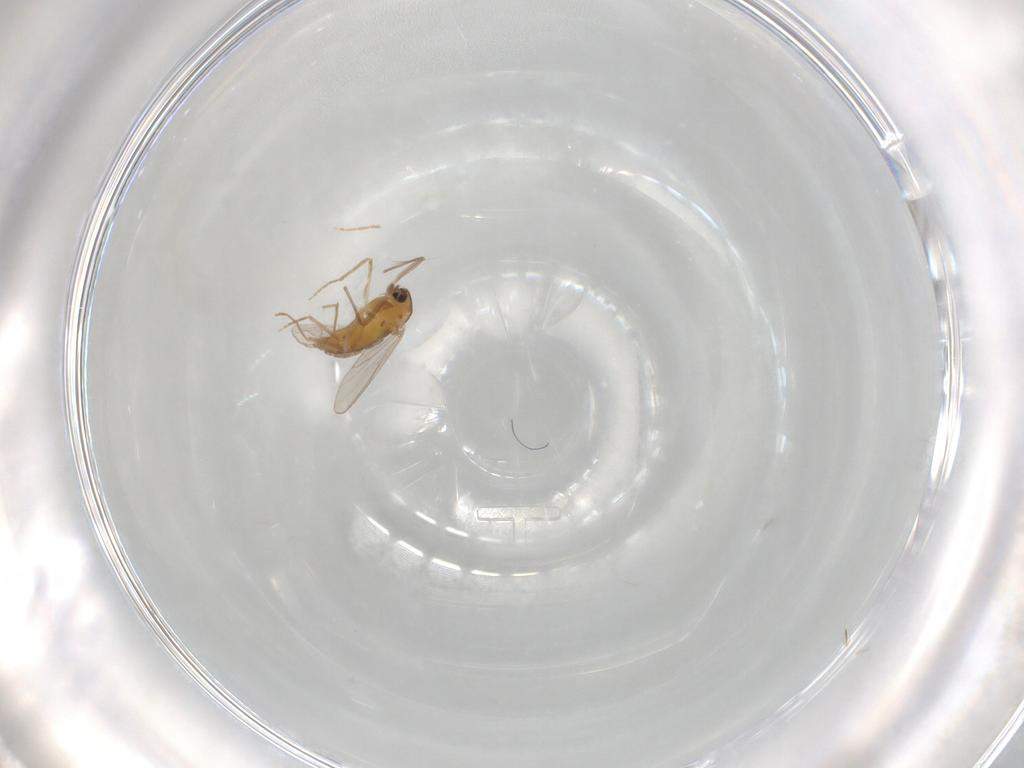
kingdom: Animalia
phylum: Arthropoda
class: Insecta
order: Diptera
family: Chironomidae
